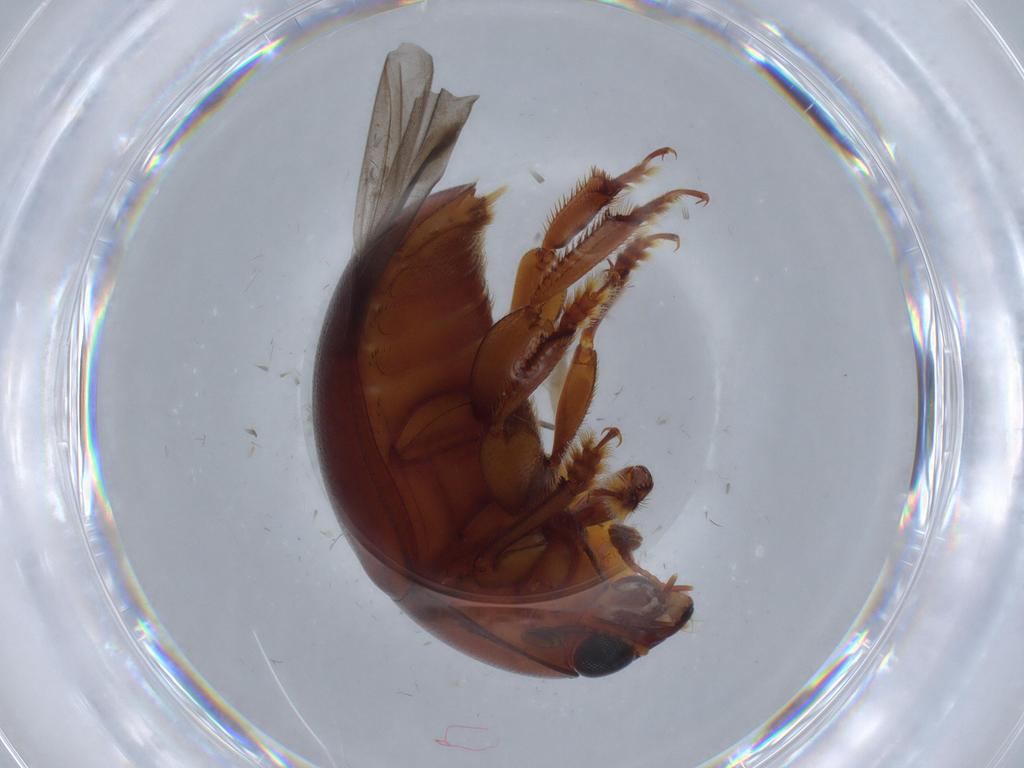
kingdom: Animalia
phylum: Arthropoda
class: Insecta
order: Coleoptera
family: Nitidulidae
